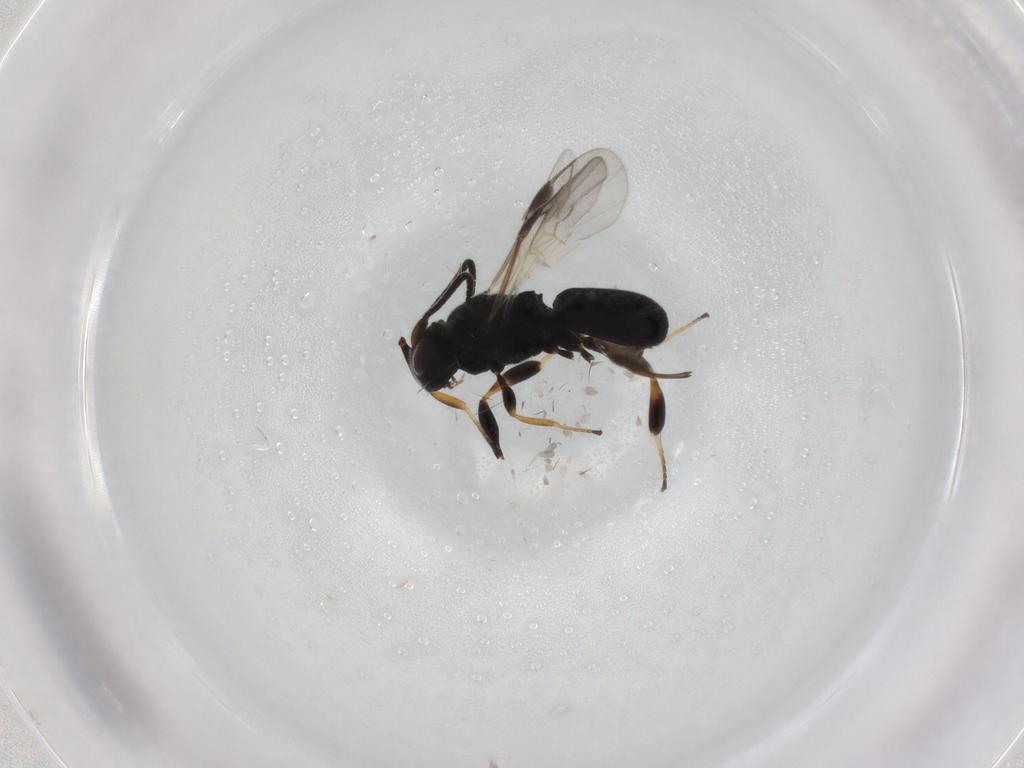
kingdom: Animalia
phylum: Arthropoda
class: Insecta
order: Hymenoptera
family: Braconidae
